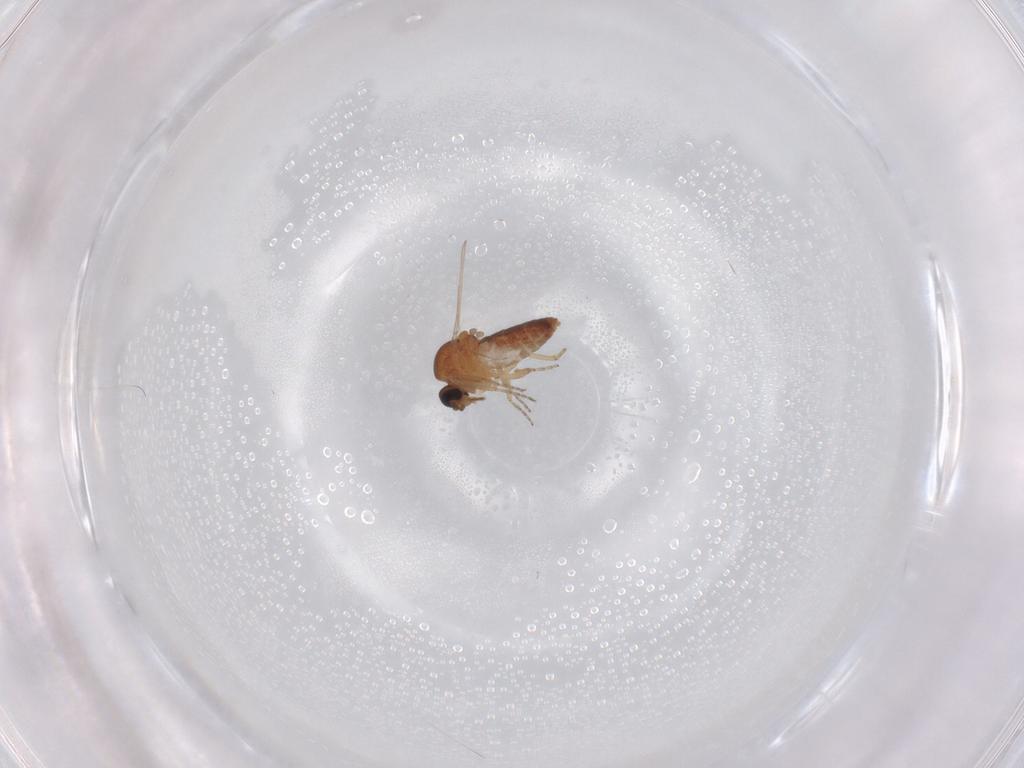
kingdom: Animalia
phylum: Arthropoda
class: Insecta
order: Diptera
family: Ceratopogonidae
